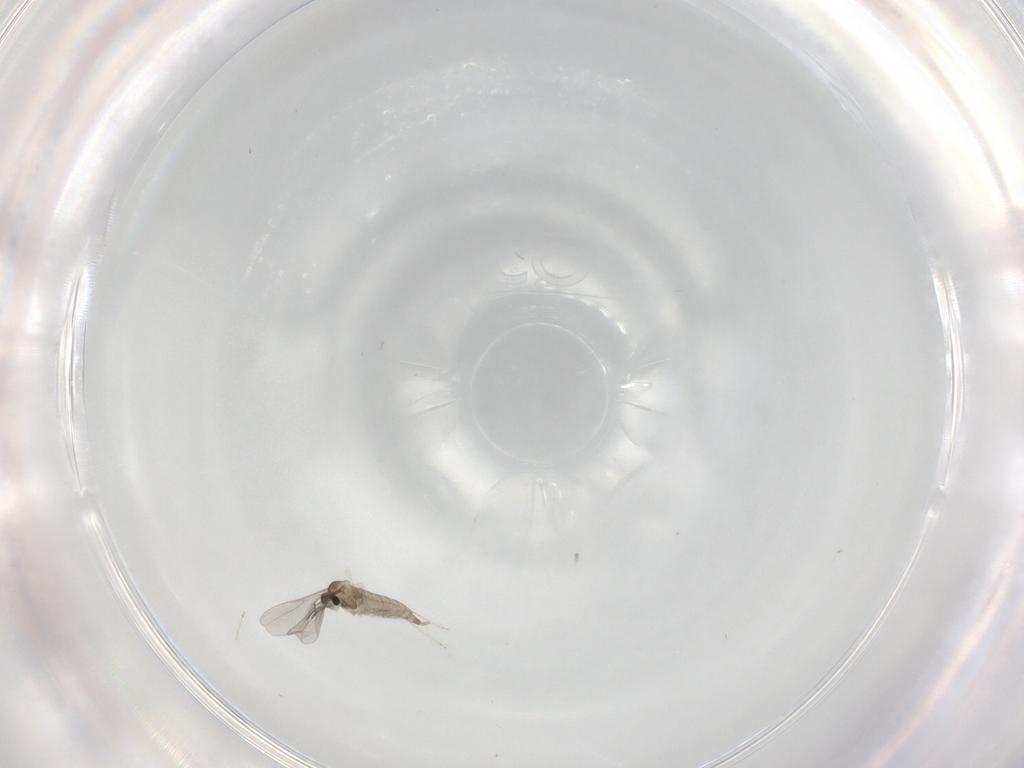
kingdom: Animalia
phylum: Arthropoda
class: Insecta
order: Diptera
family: Cecidomyiidae
